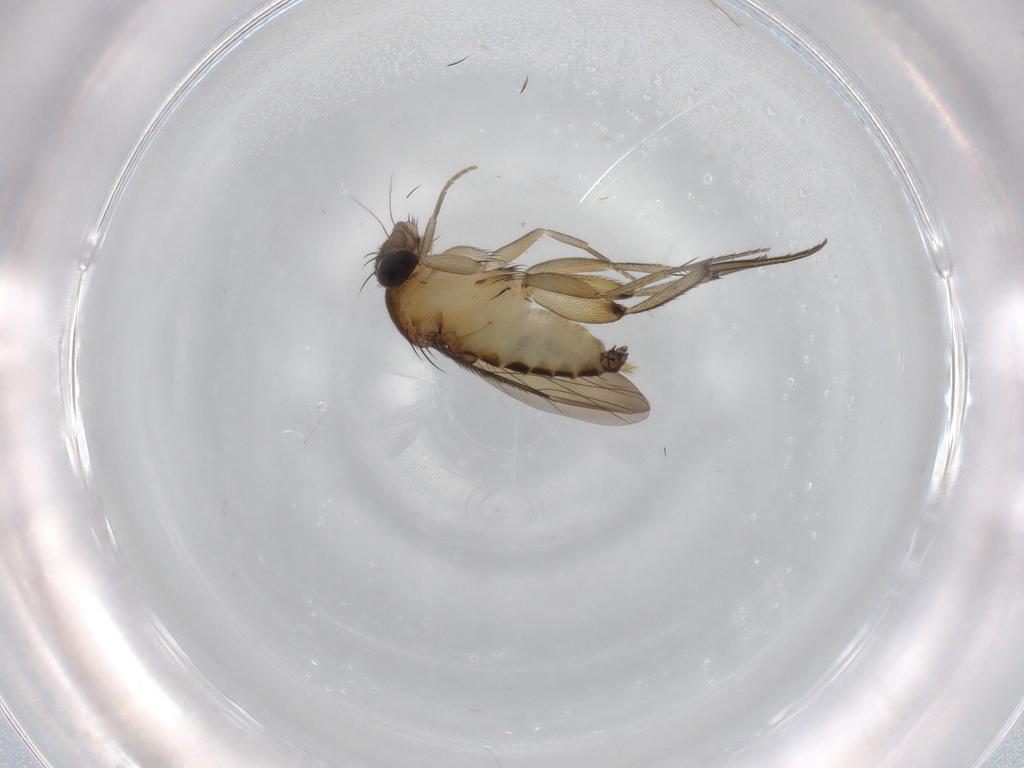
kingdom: Animalia
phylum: Arthropoda
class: Insecta
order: Diptera
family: Phoridae
